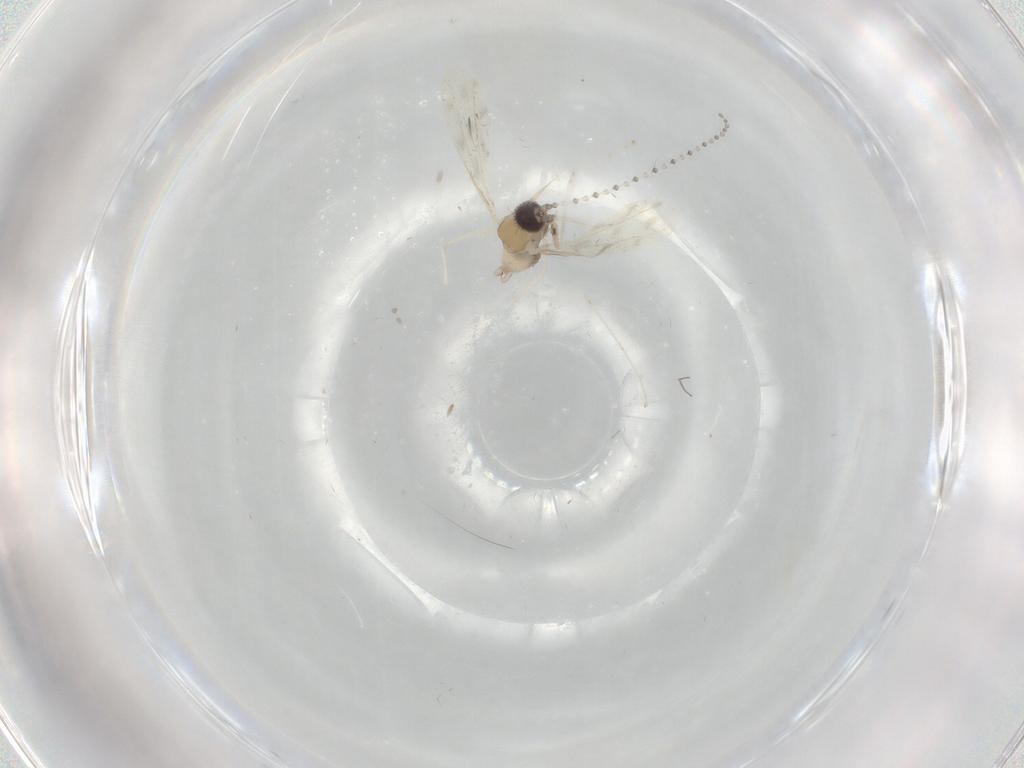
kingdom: Animalia
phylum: Arthropoda
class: Insecta
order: Diptera
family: Cecidomyiidae
